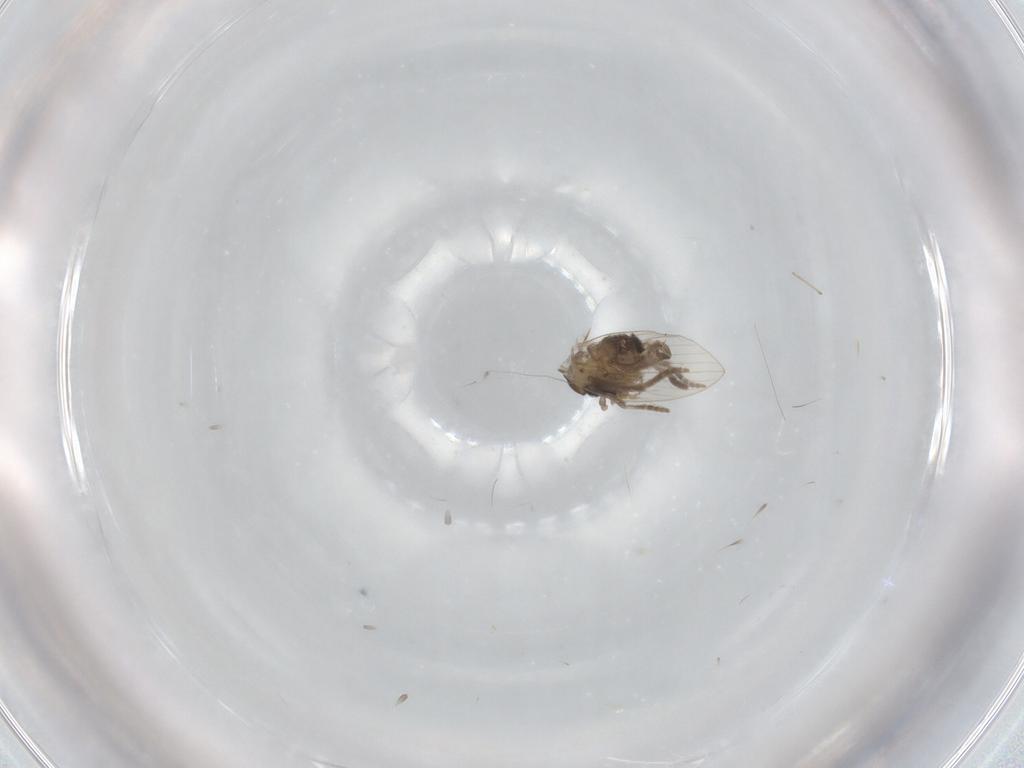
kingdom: Animalia
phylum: Arthropoda
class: Insecta
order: Diptera
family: Psychodidae
